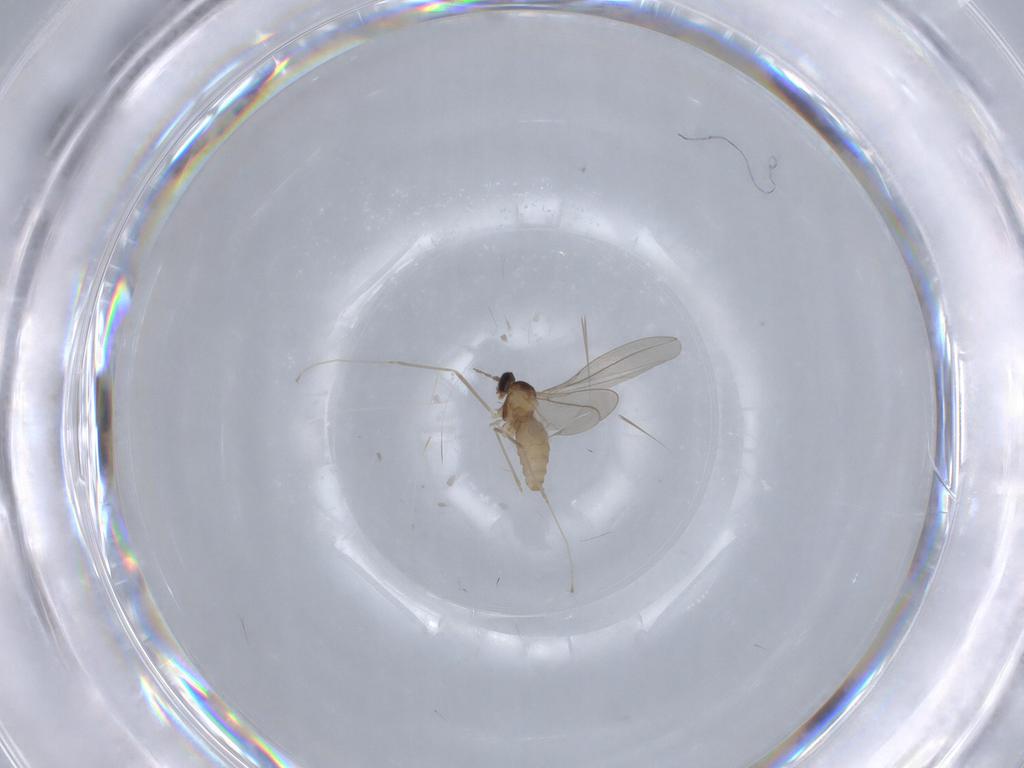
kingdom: Animalia
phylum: Arthropoda
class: Insecta
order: Diptera
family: Cecidomyiidae
